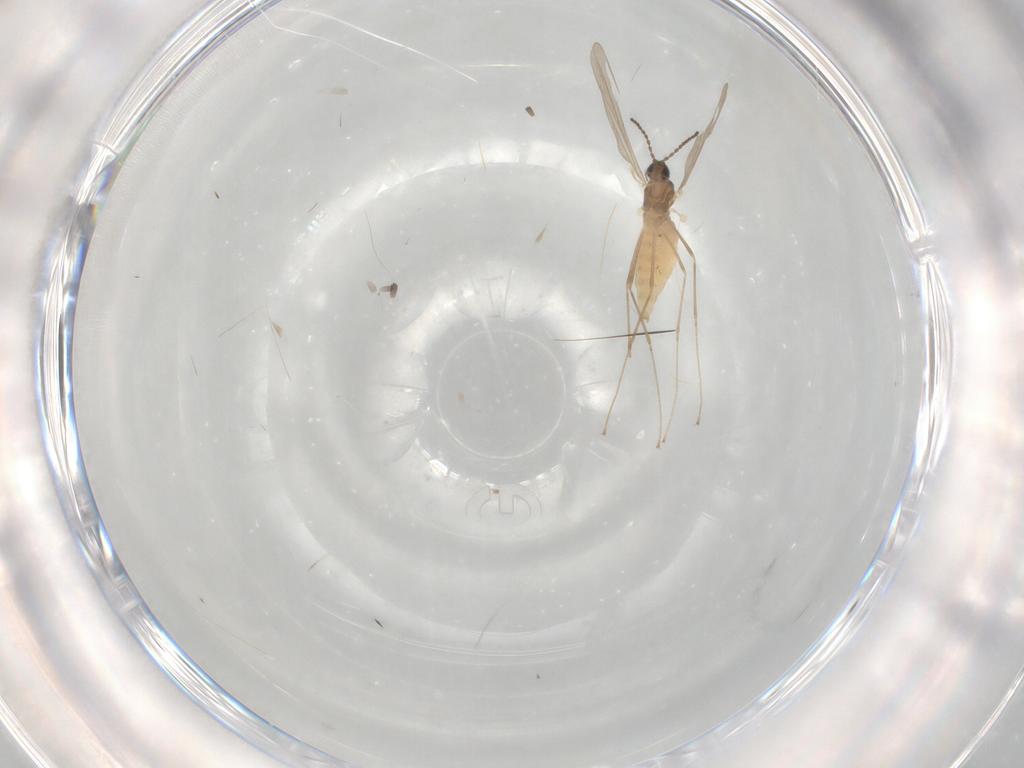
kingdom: Animalia
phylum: Arthropoda
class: Insecta
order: Diptera
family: Cecidomyiidae
